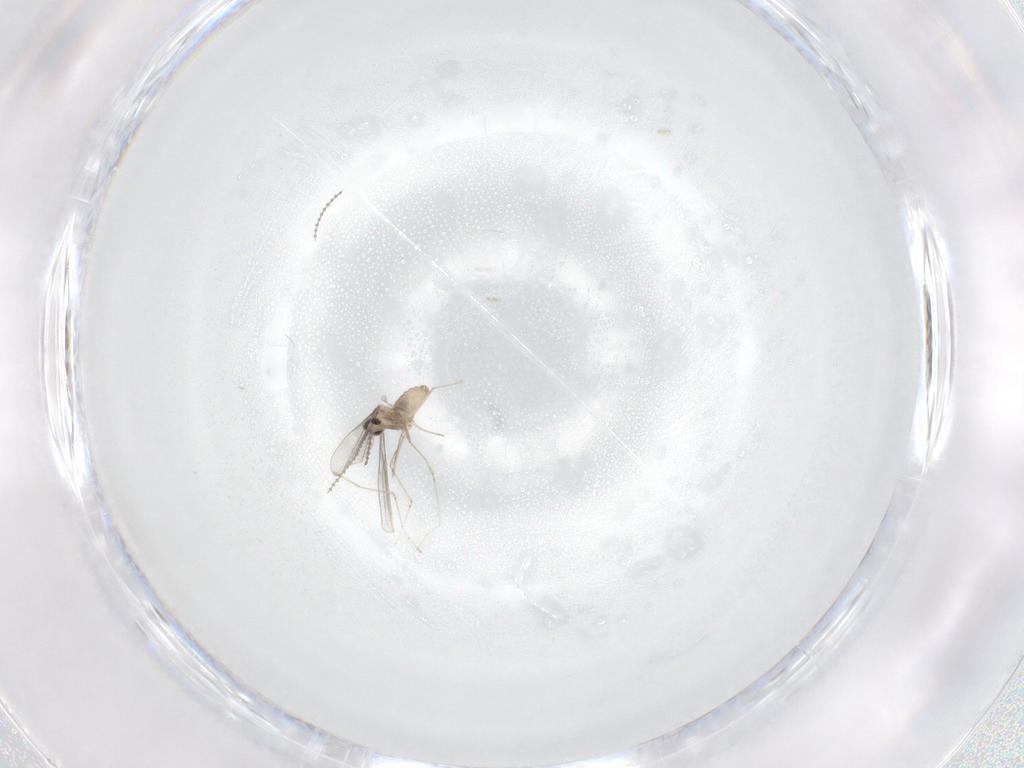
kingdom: Animalia
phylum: Arthropoda
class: Insecta
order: Diptera
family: Cecidomyiidae
